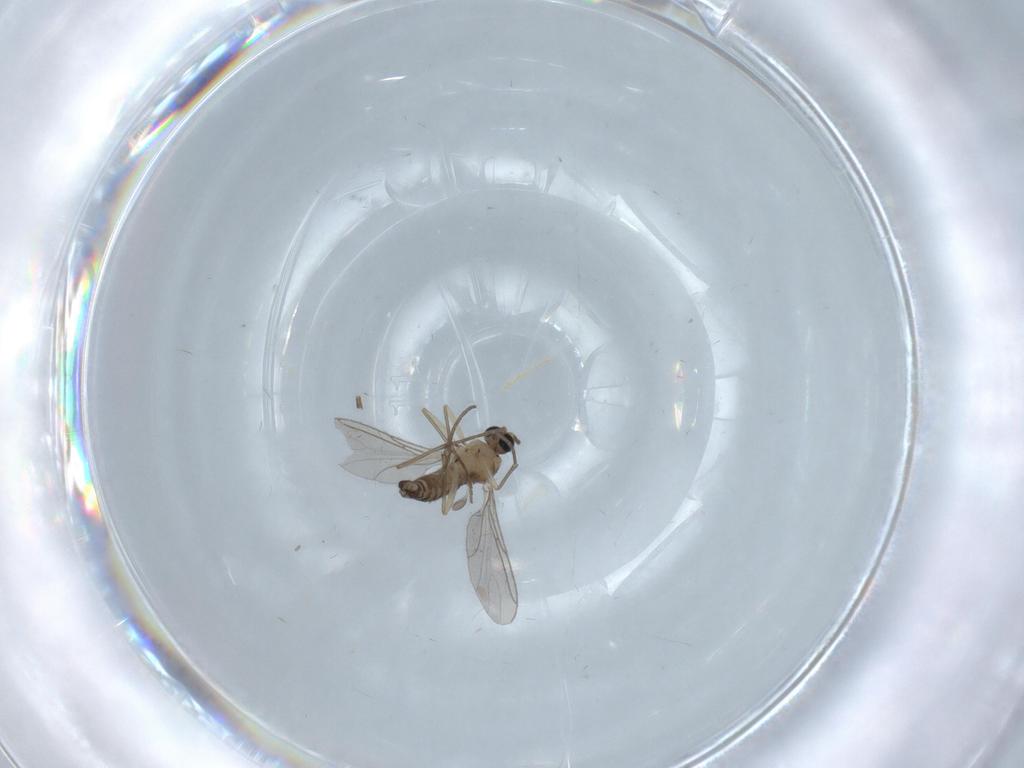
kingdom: Animalia
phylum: Arthropoda
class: Insecta
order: Diptera
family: Sciaridae
